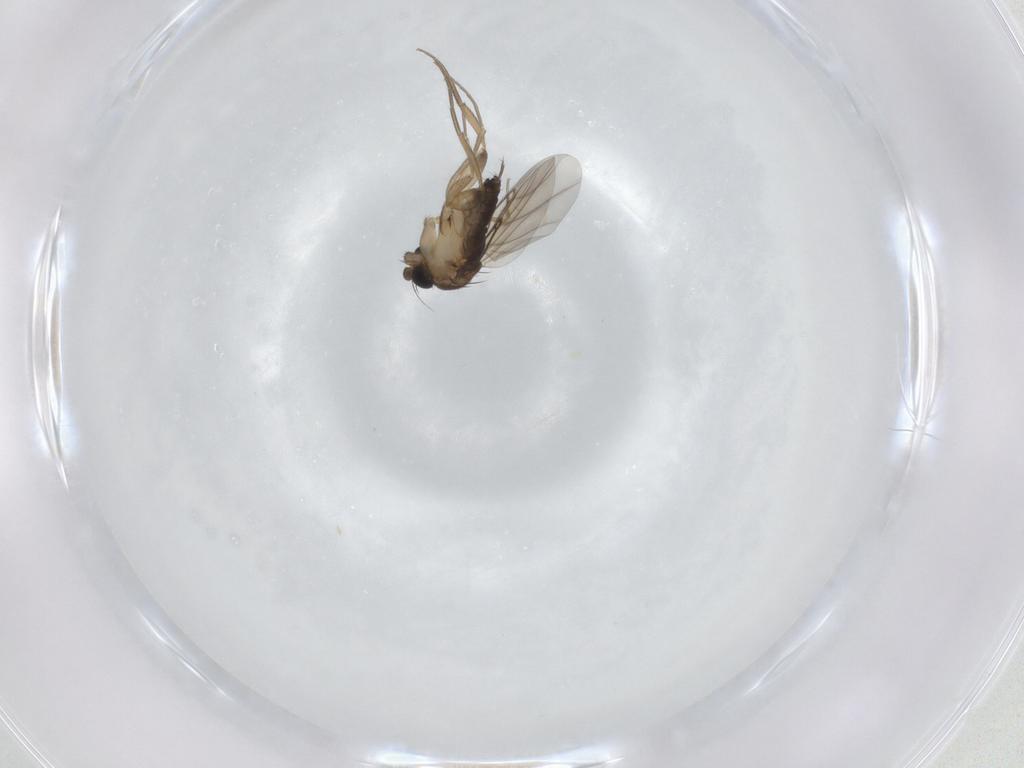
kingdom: Animalia
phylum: Arthropoda
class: Insecta
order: Diptera
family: Phoridae
